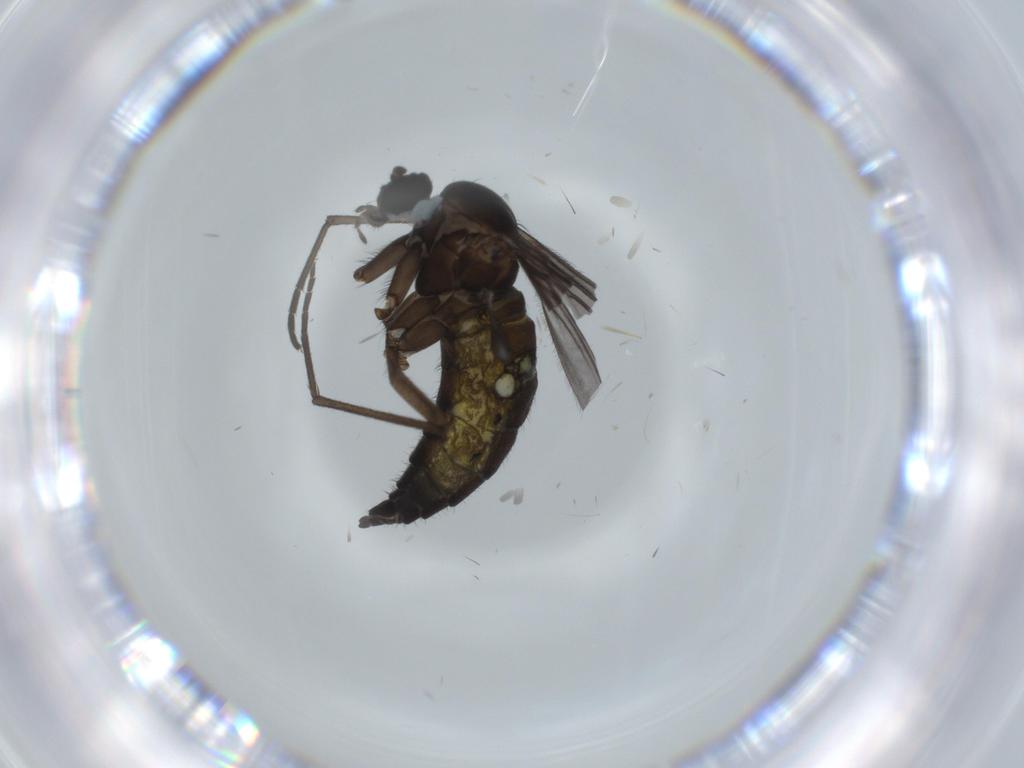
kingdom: Animalia
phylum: Arthropoda
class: Insecta
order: Diptera
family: Sciaridae
